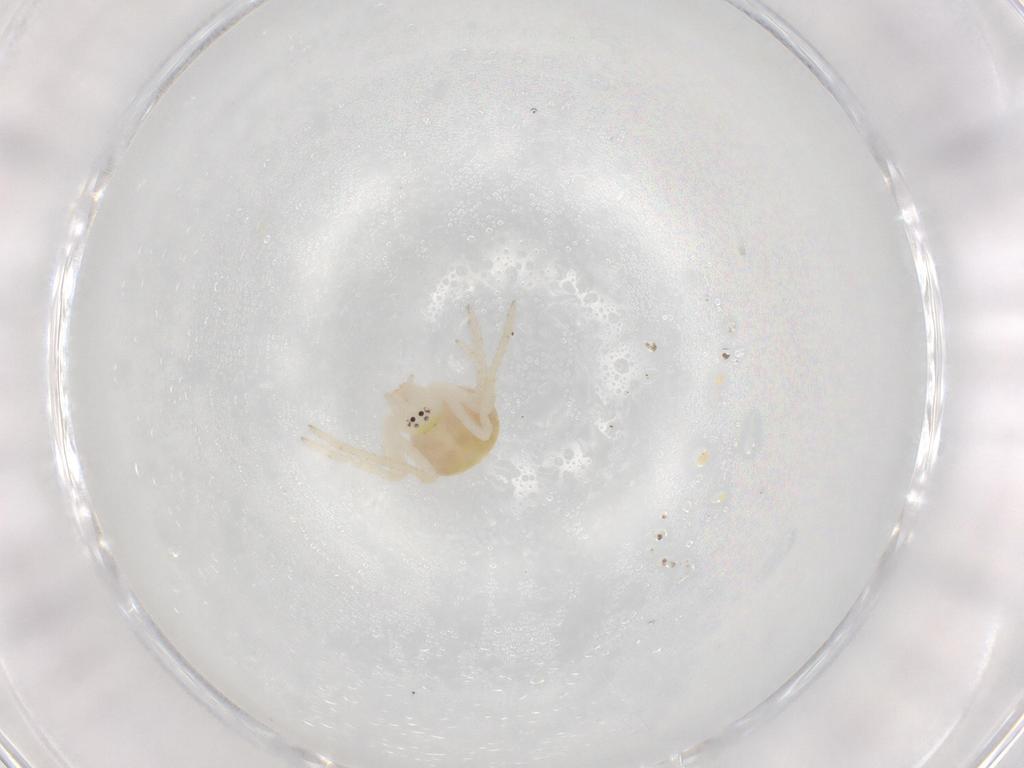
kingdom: Animalia
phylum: Arthropoda
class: Arachnida
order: Araneae
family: Theridiidae
